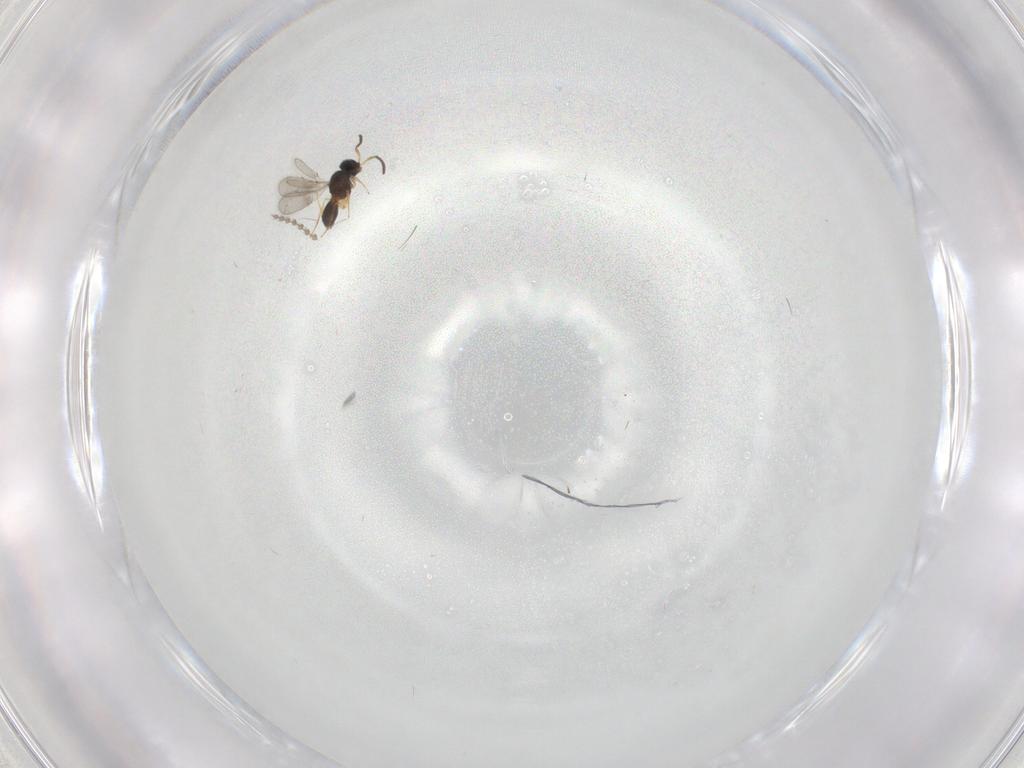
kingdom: Animalia
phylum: Arthropoda
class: Insecta
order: Hymenoptera
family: Scelionidae
